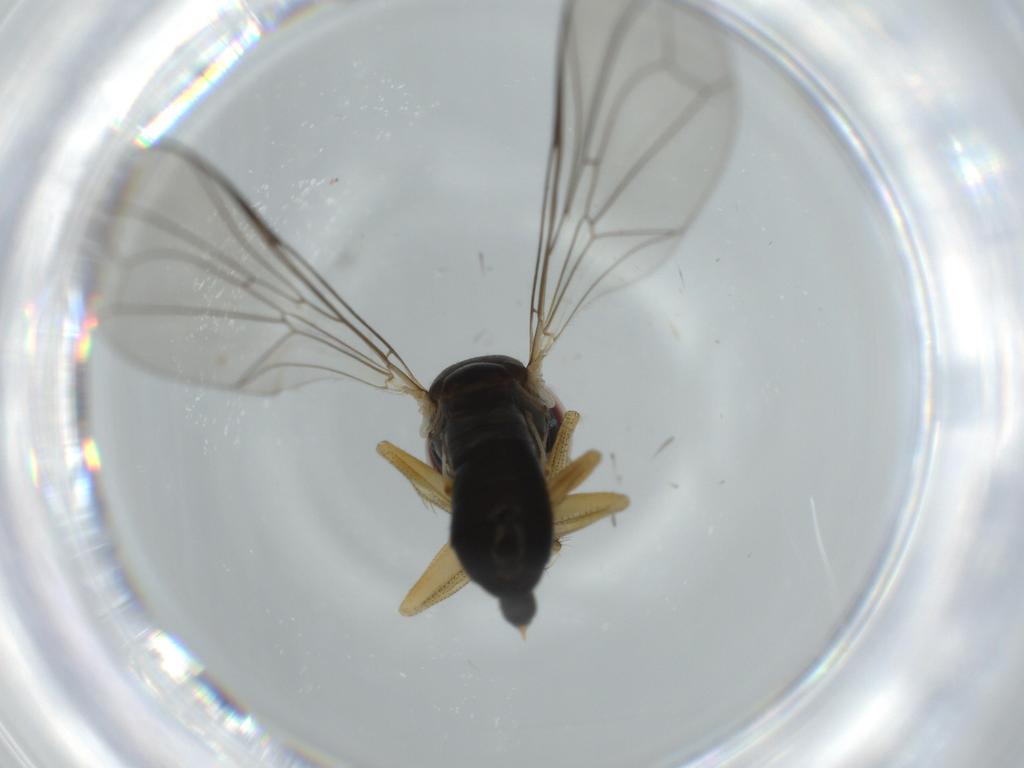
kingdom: Animalia
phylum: Arthropoda
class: Insecta
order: Diptera
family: Pipunculidae
